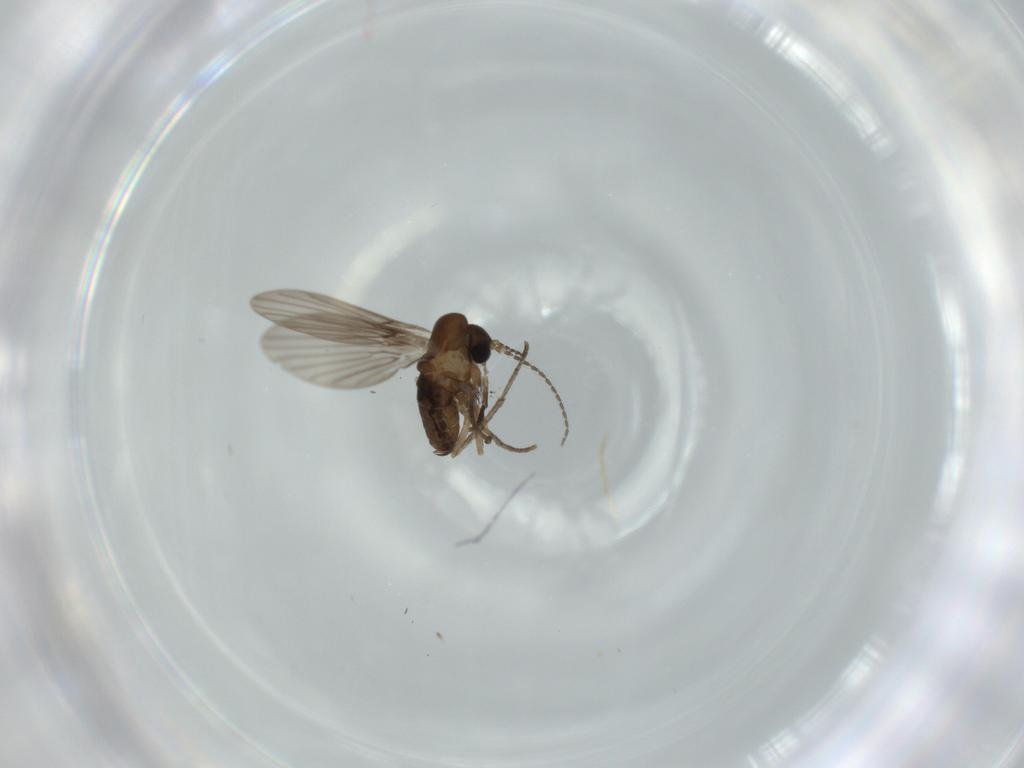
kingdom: Animalia
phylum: Arthropoda
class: Insecta
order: Diptera
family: Psychodidae
